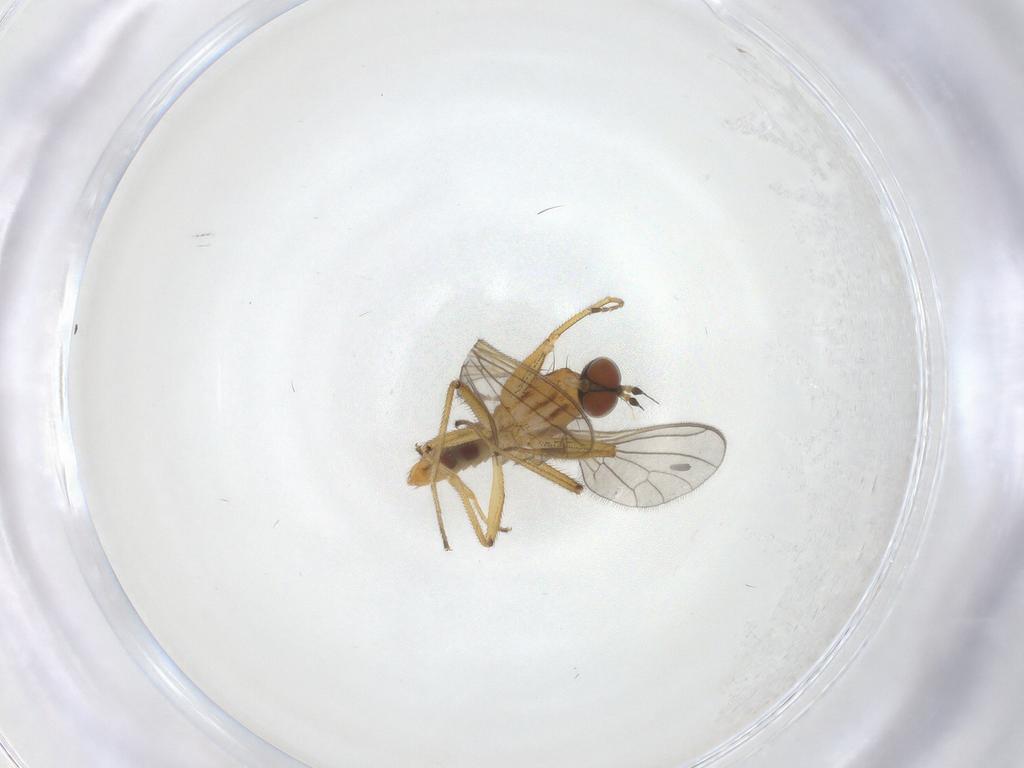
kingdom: Animalia
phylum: Arthropoda
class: Insecta
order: Diptera
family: Empididae
